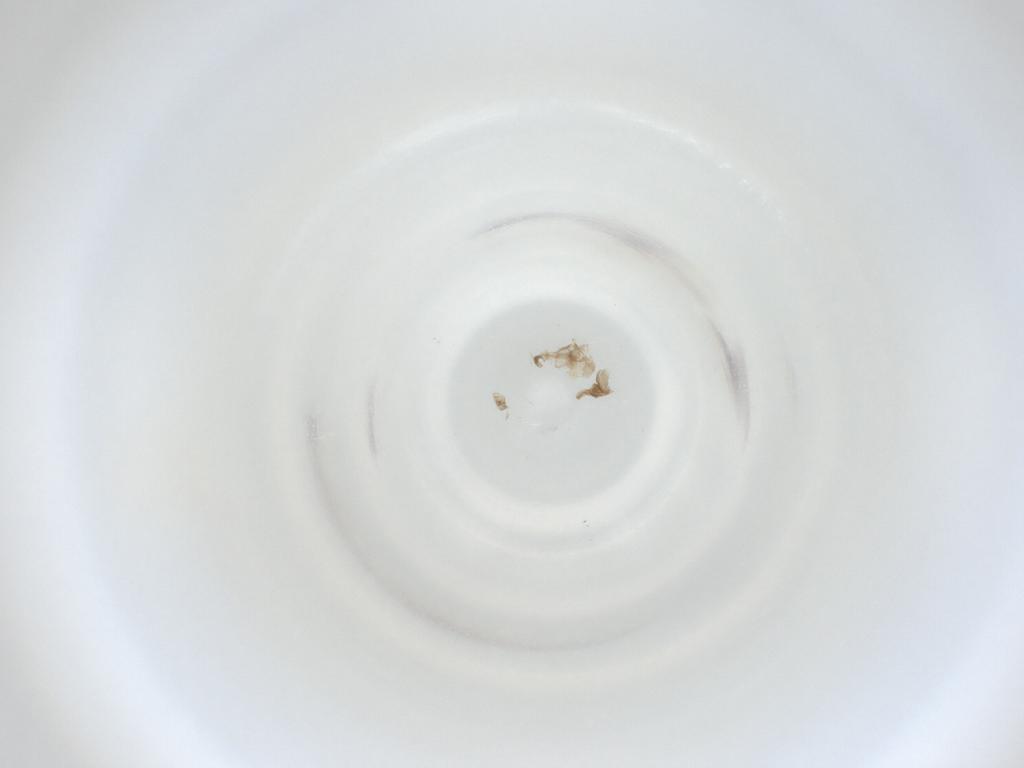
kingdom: Animalia
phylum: Arthropoda
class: Insecta
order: Diptera
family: Cecidomyiidae
